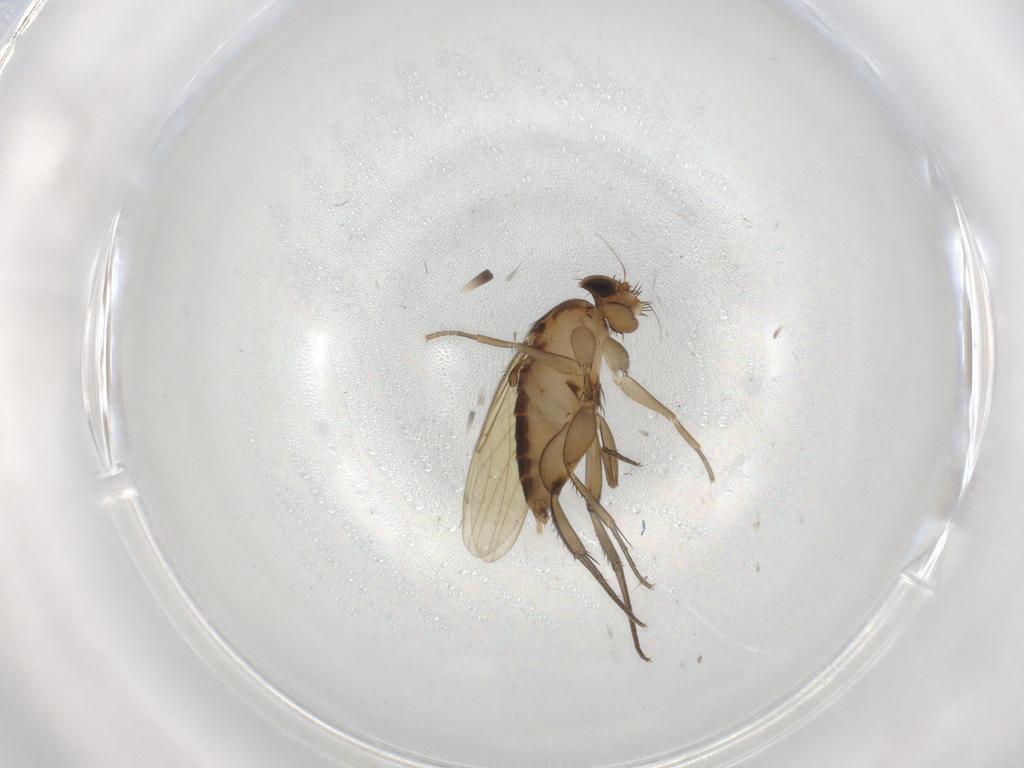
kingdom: Animalia
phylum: Arthropoda
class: Insecta
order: Diptera
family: Phoridae
